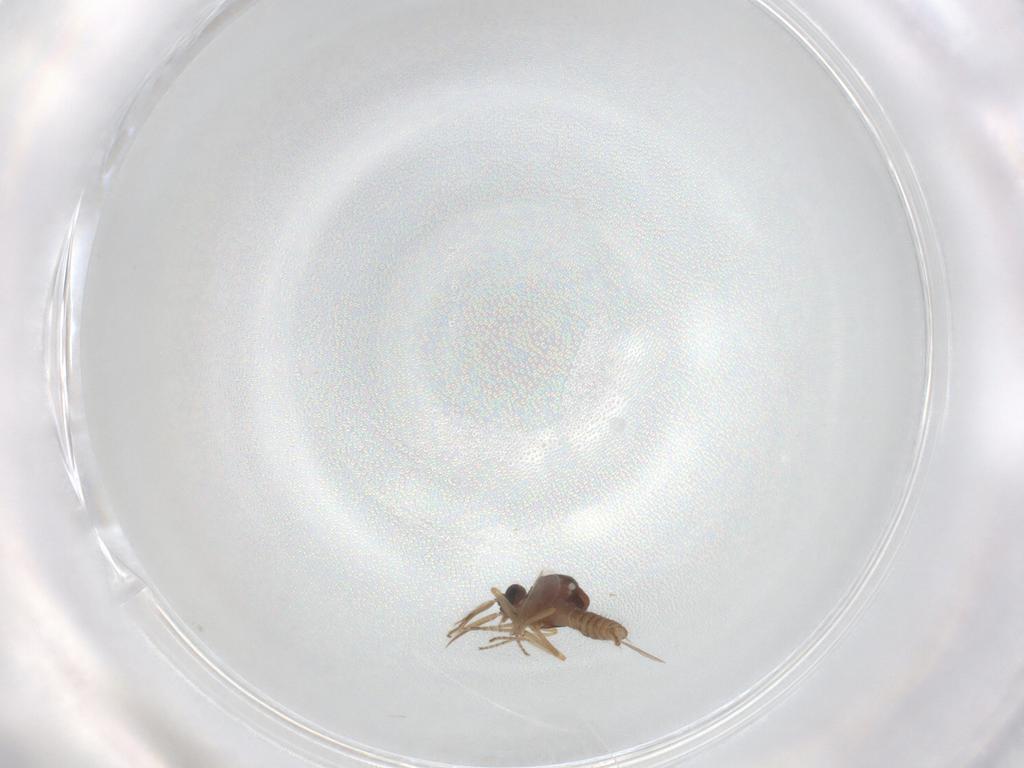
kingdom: Animalia
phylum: Arthropoda
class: Insecta
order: Diptera
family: Ceratopogonidae
